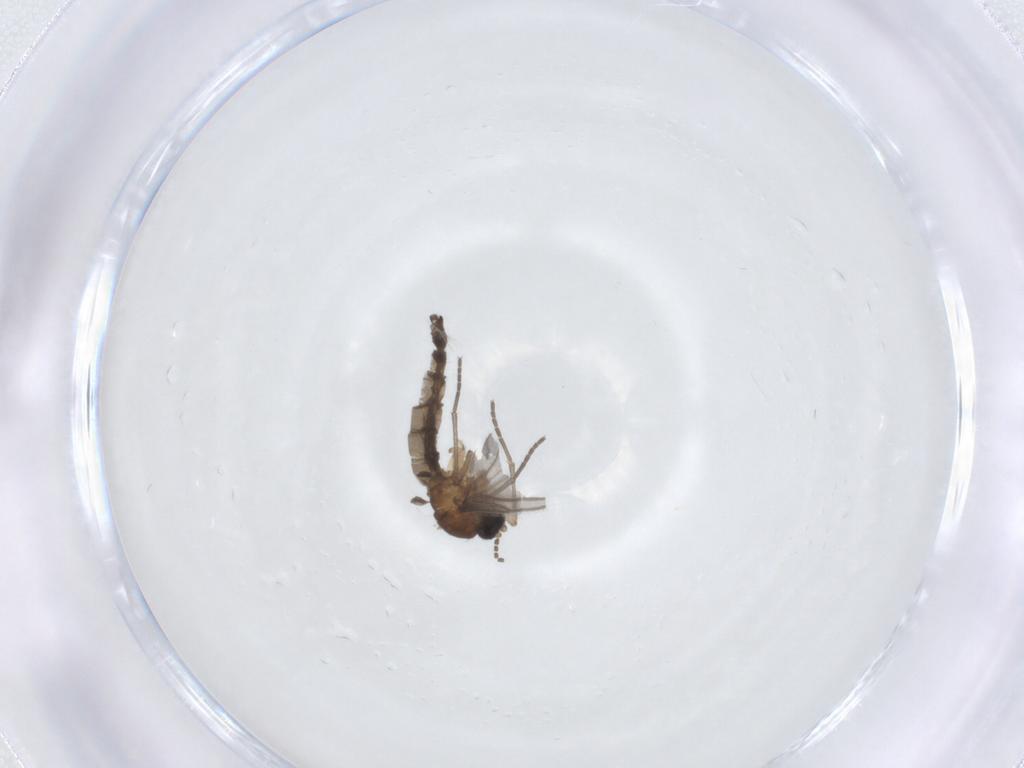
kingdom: Animalia
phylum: Arthropoda
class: Insecta
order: Diptera
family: Sciaridae
